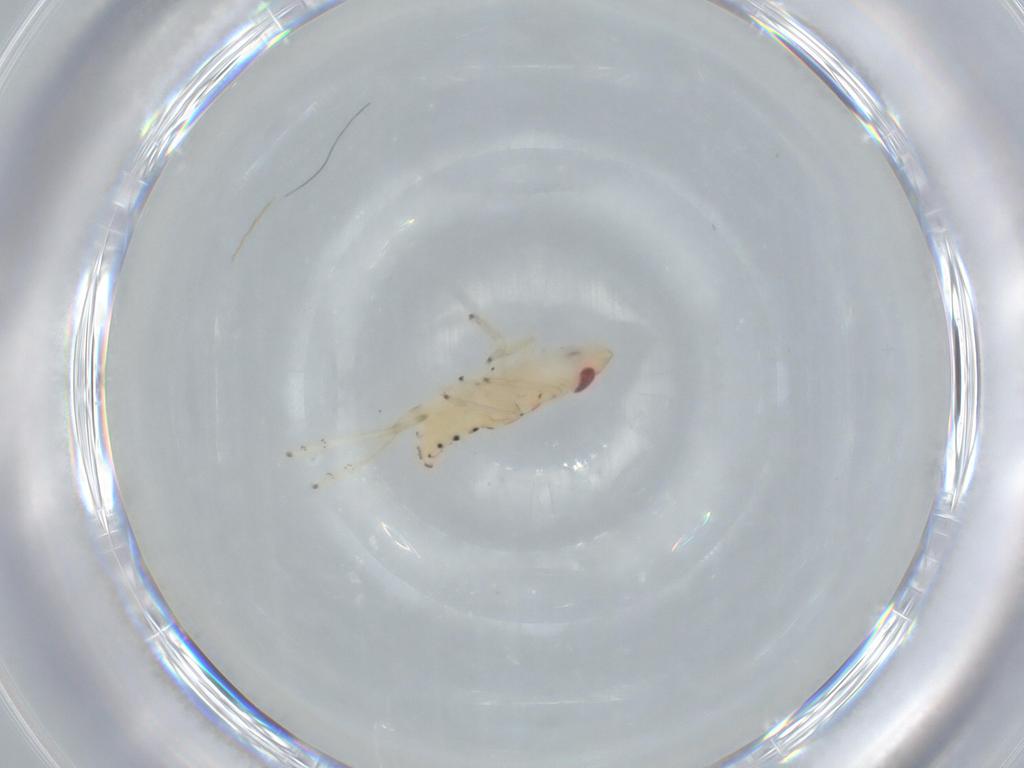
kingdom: Animalia
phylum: Arthropoda
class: Insecta
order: Hemiptera
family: Tropiduchidae
